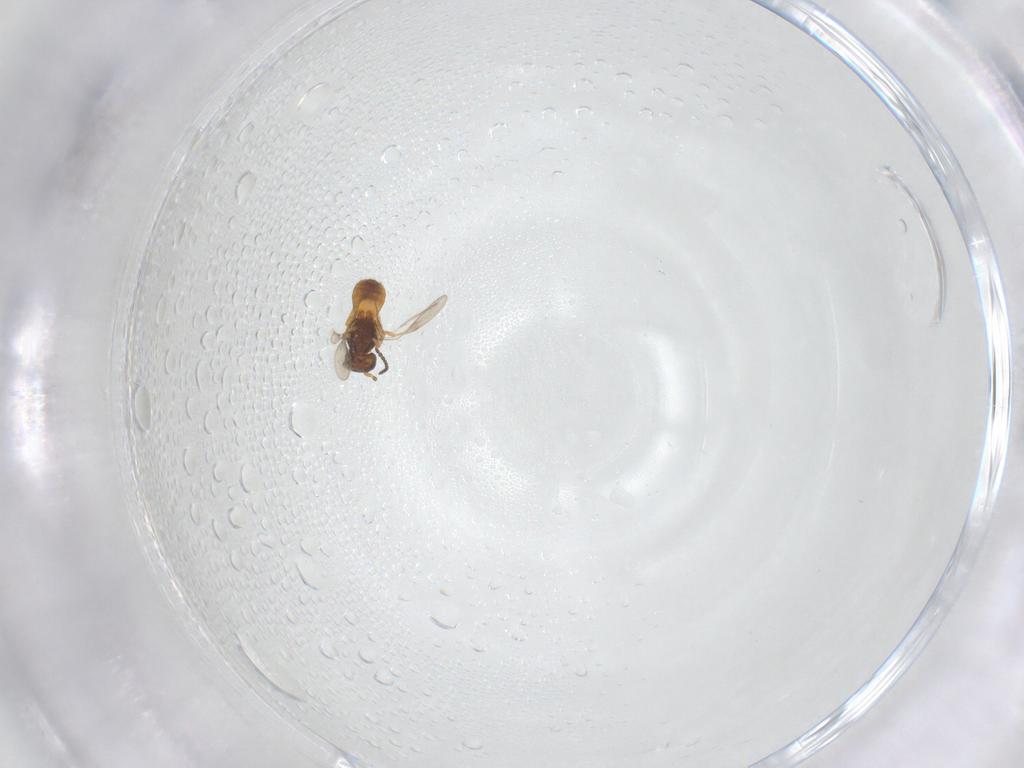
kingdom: Animalia
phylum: Arthropoda
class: Insecta
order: Hymenoptera
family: Scelionidae
